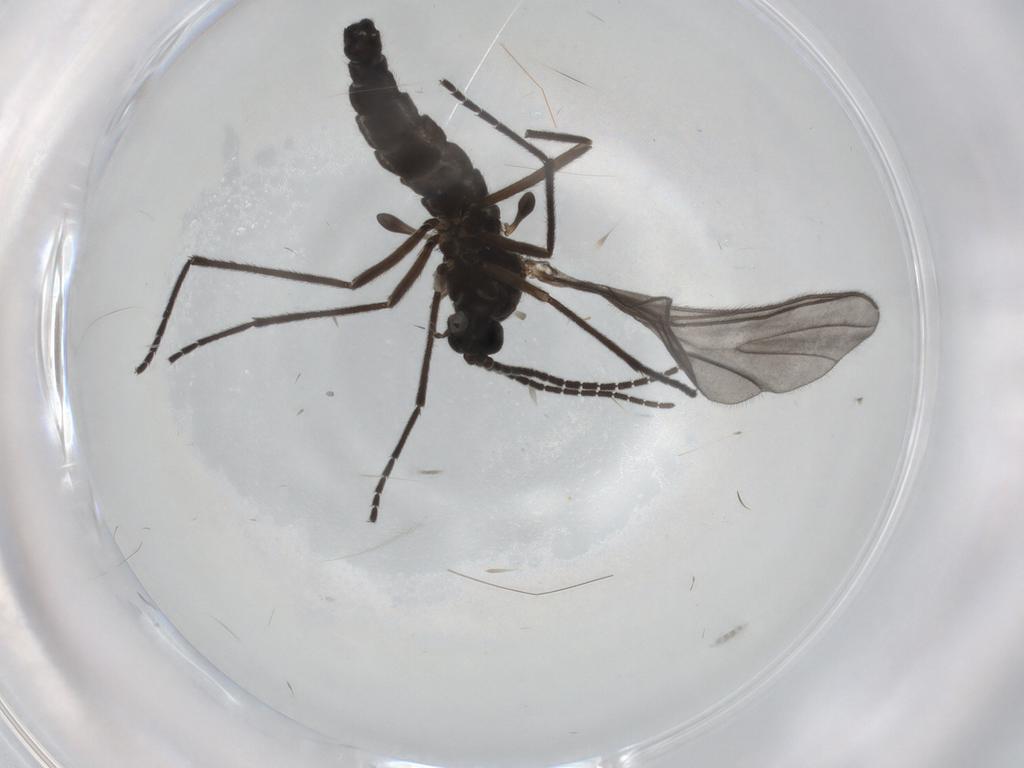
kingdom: Animalia
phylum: Arthropoda
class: Insecta
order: Diptera
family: Sciaridae
